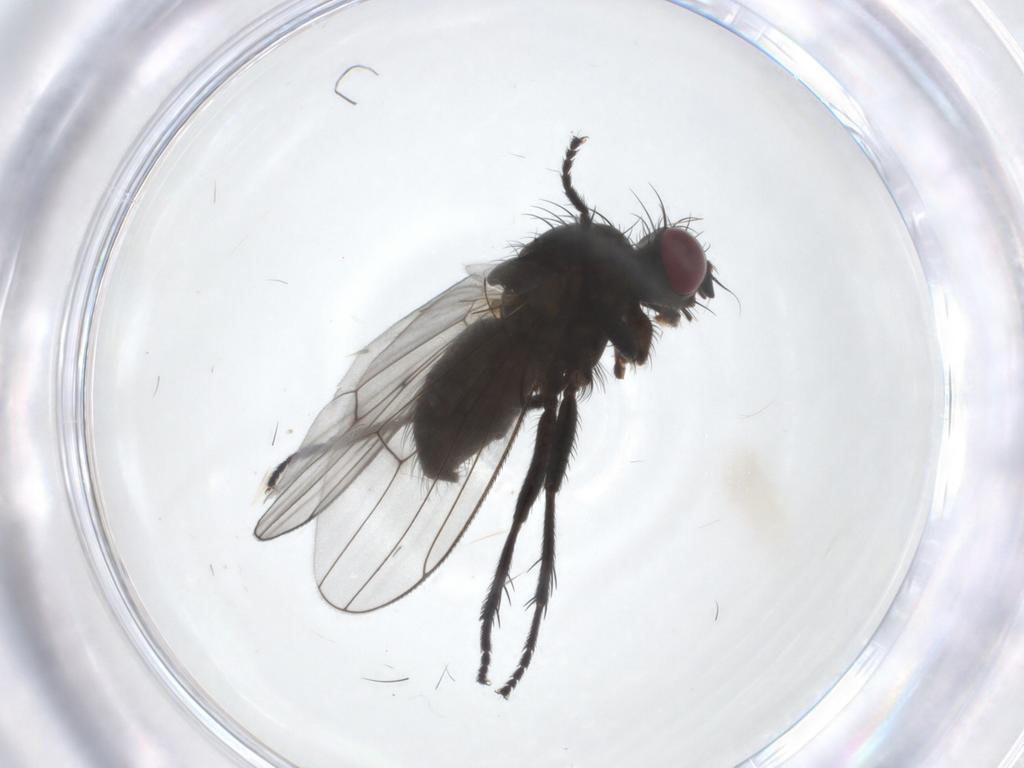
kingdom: Animalia
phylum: Arthropoda
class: Insecta
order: Diptera
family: Muscidae
